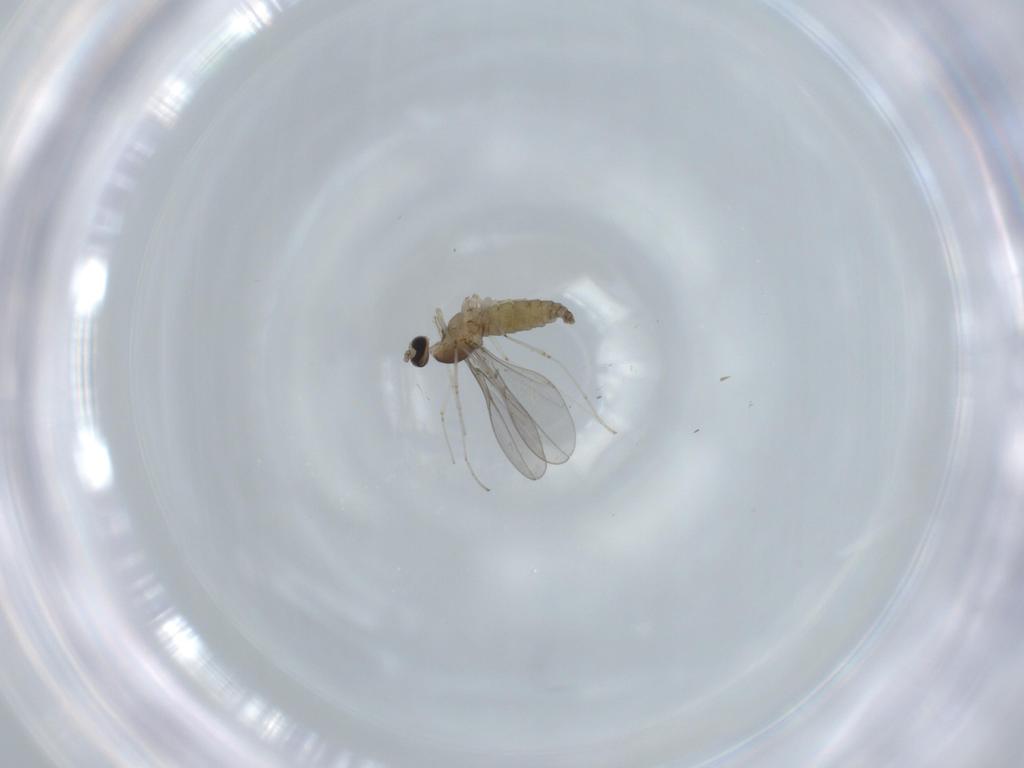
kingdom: Animalia
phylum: Arthropoda
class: Insecta
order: Diptera
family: Cecidomyiidae
